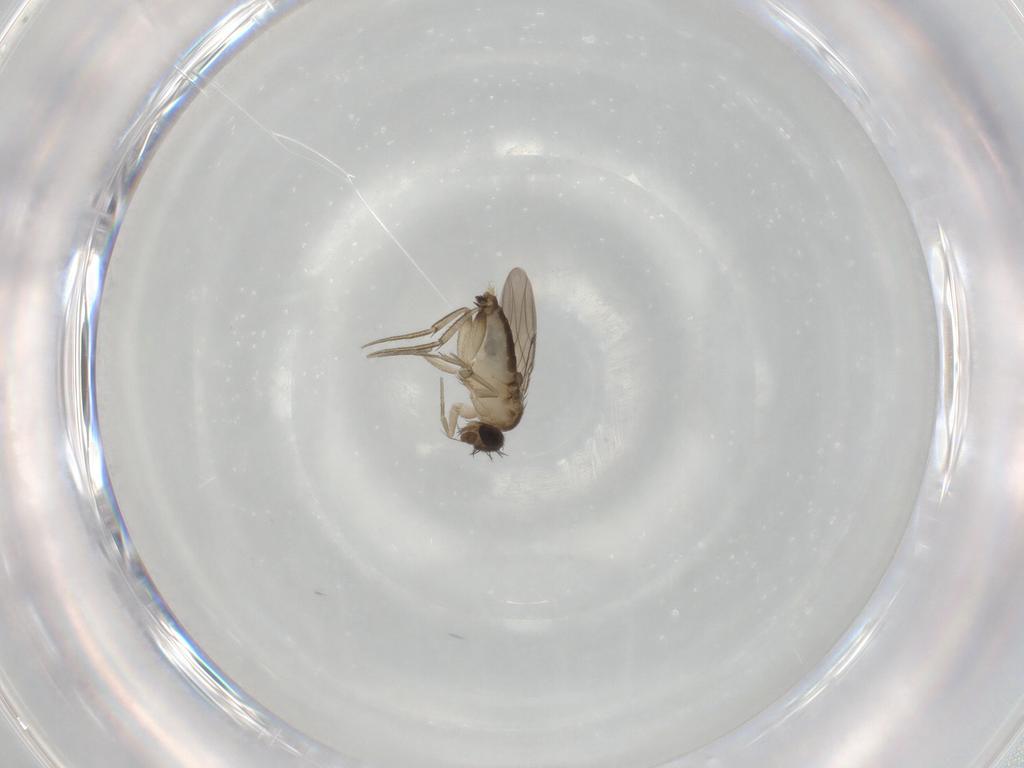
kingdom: Animalia
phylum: Arthropoda
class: Insecta
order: Diptera
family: Phoridae
